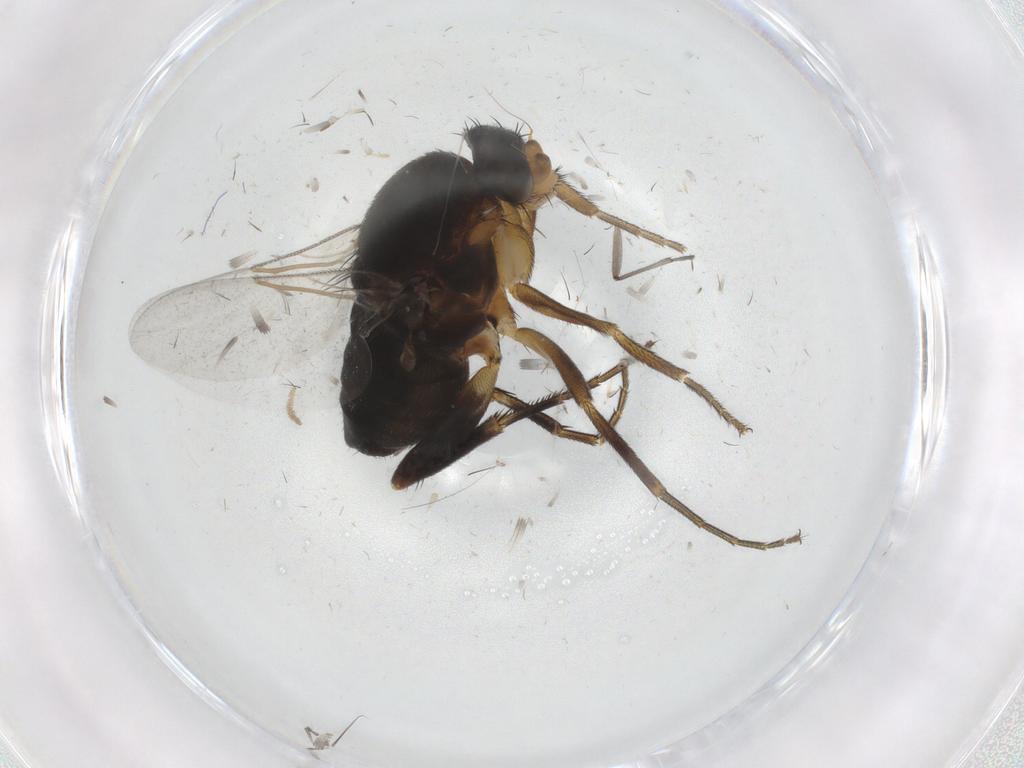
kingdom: Animalia
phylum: Arthropoda
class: Insecta
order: Diptera
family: Phoridae
